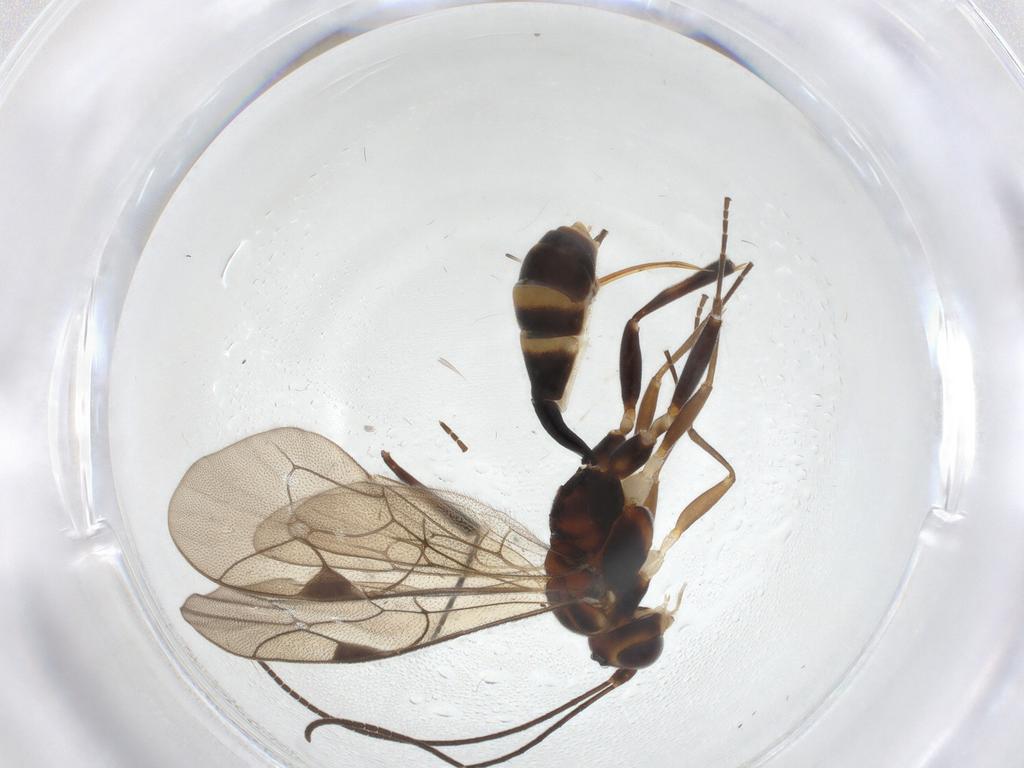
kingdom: Animalia
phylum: Arthropoda
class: Insecta
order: Hymenoptera
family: Ichneumonidae
